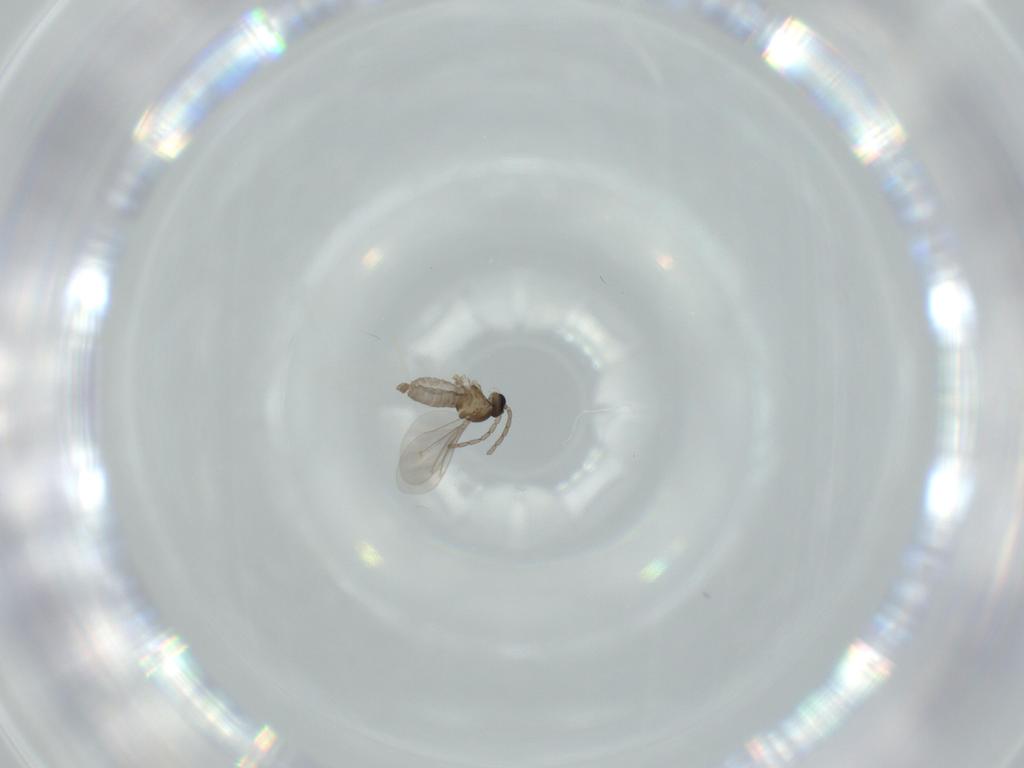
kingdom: Animalia
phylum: Arthropoda
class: Insecta
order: Diptera
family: Cecidomyiidae
